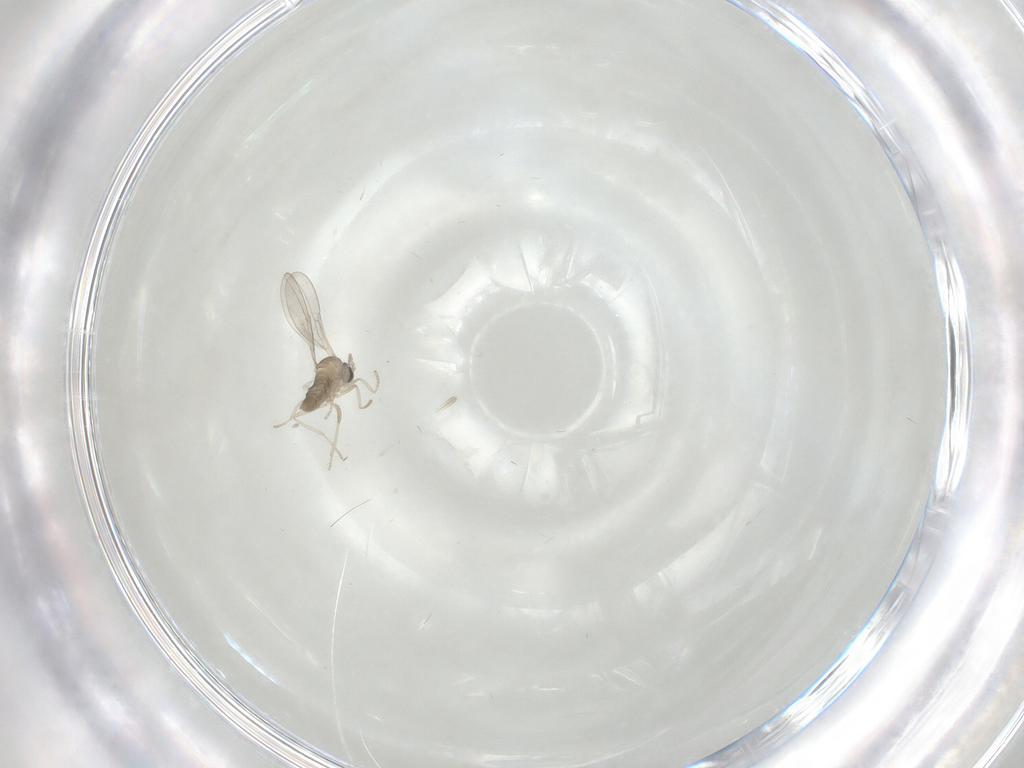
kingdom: Animalia
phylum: Arthropoda
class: Insecta
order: Diptera
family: Cecidomyiidae
